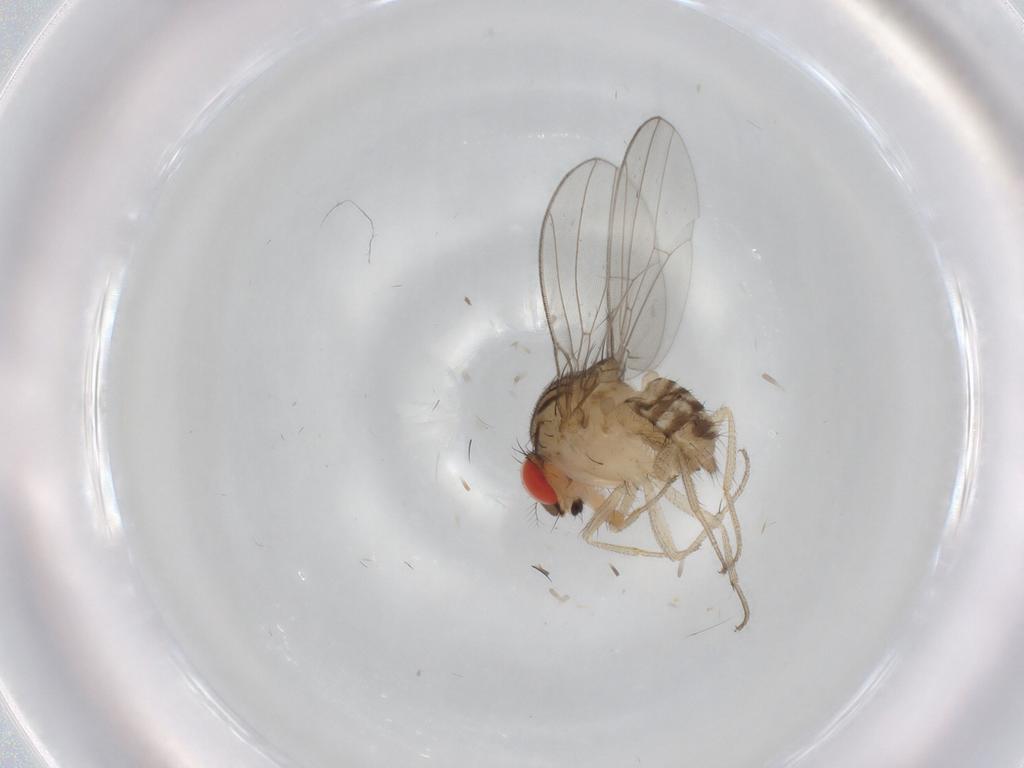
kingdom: Animalia
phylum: Arthropoda
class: Insecta
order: Diptera
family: Drosophilidae
